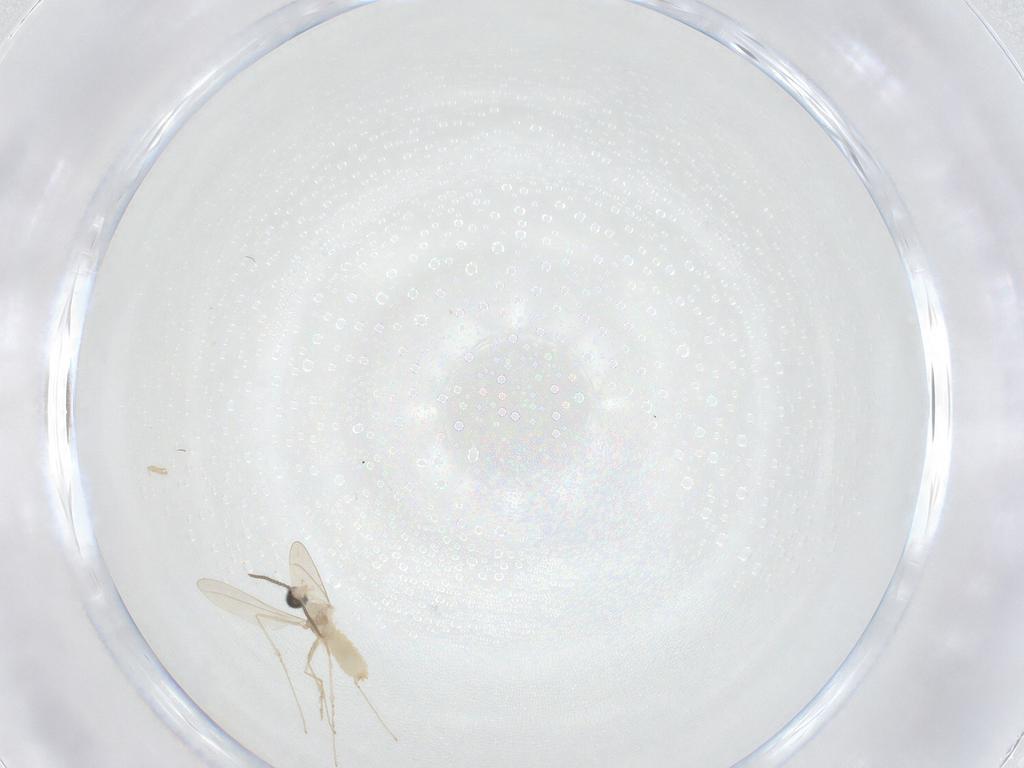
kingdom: Animalia
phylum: Arthropoda
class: Insecta
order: Diptera
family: Cecidomyiidae
